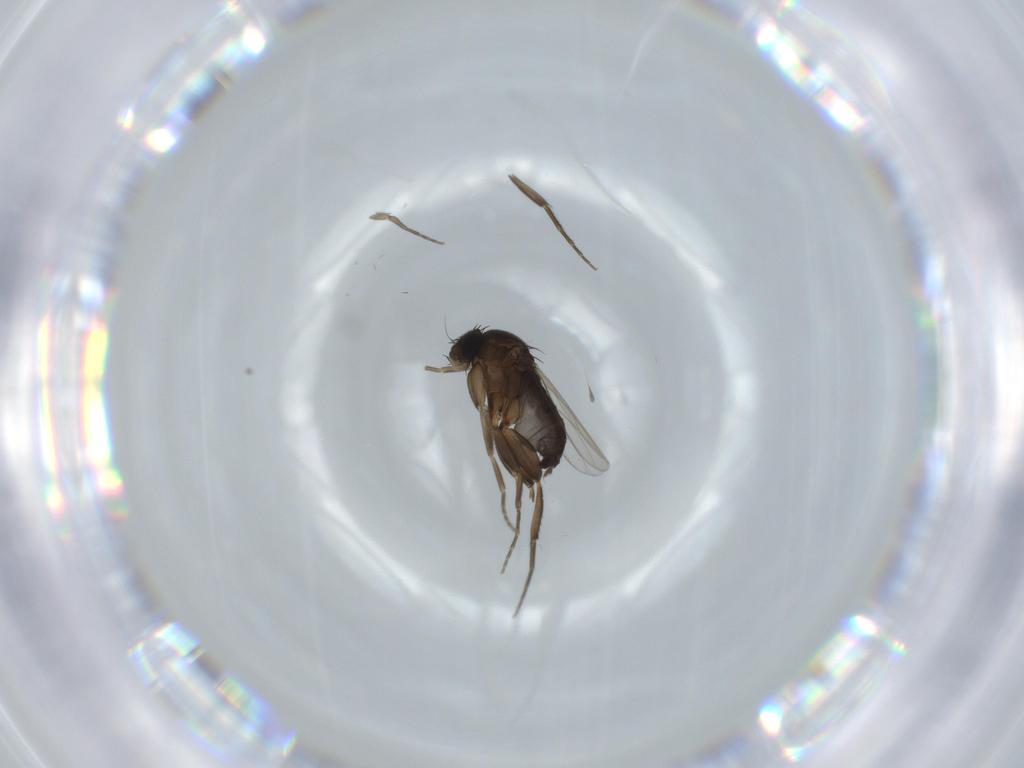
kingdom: Animalia
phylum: Arthropoda
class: Insecta
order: Diptera
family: Phoridae
